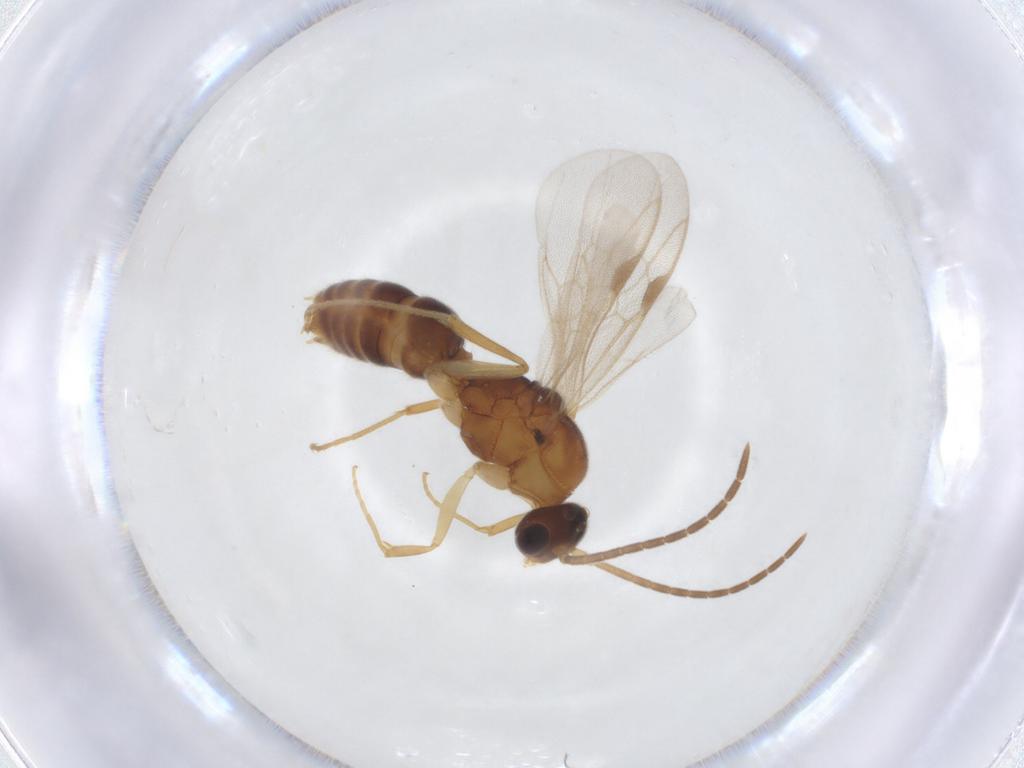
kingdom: Animalia
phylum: Arthropoda
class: Insecta
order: Hymenoptera
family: Formicidae
